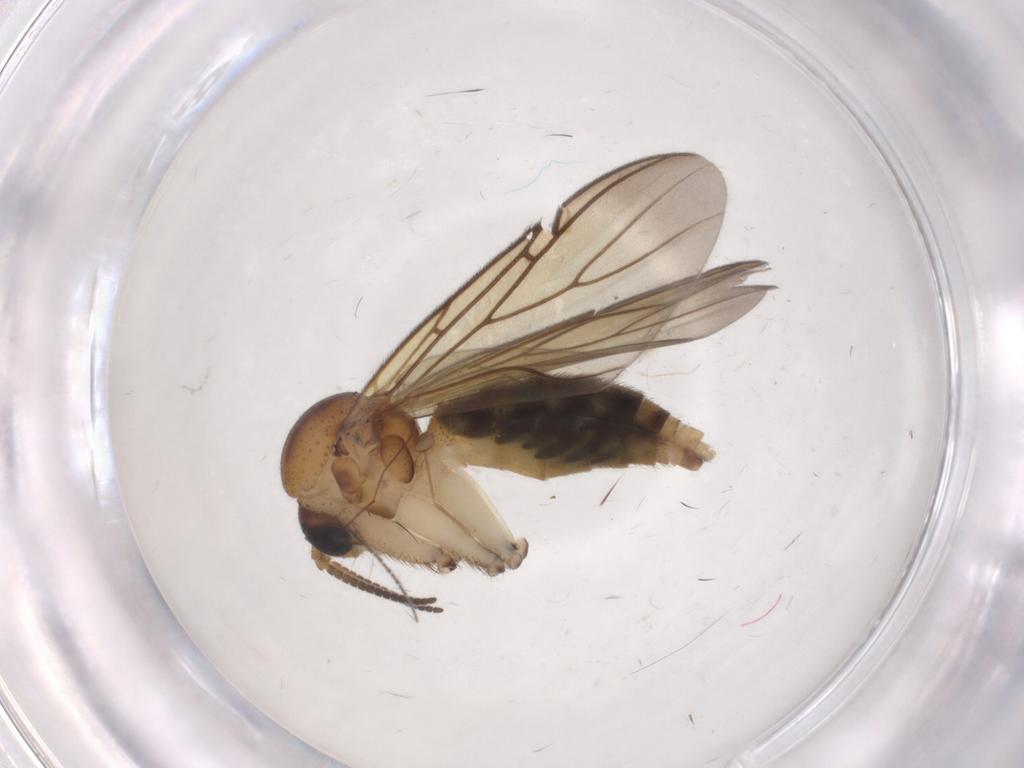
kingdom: Animalia
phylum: Arthropoda
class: Insecta
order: Diptera
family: Mycetophilidae
